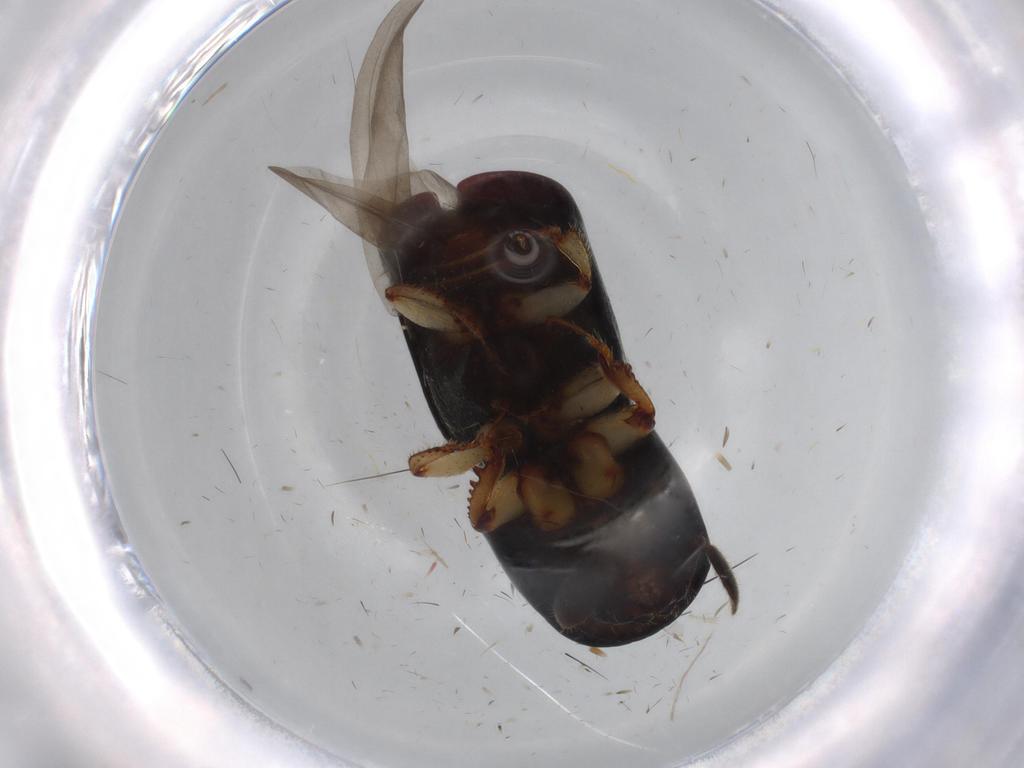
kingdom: Animalia
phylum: Arthropoda
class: Insecta
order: Coleoptera
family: Curculionidae
